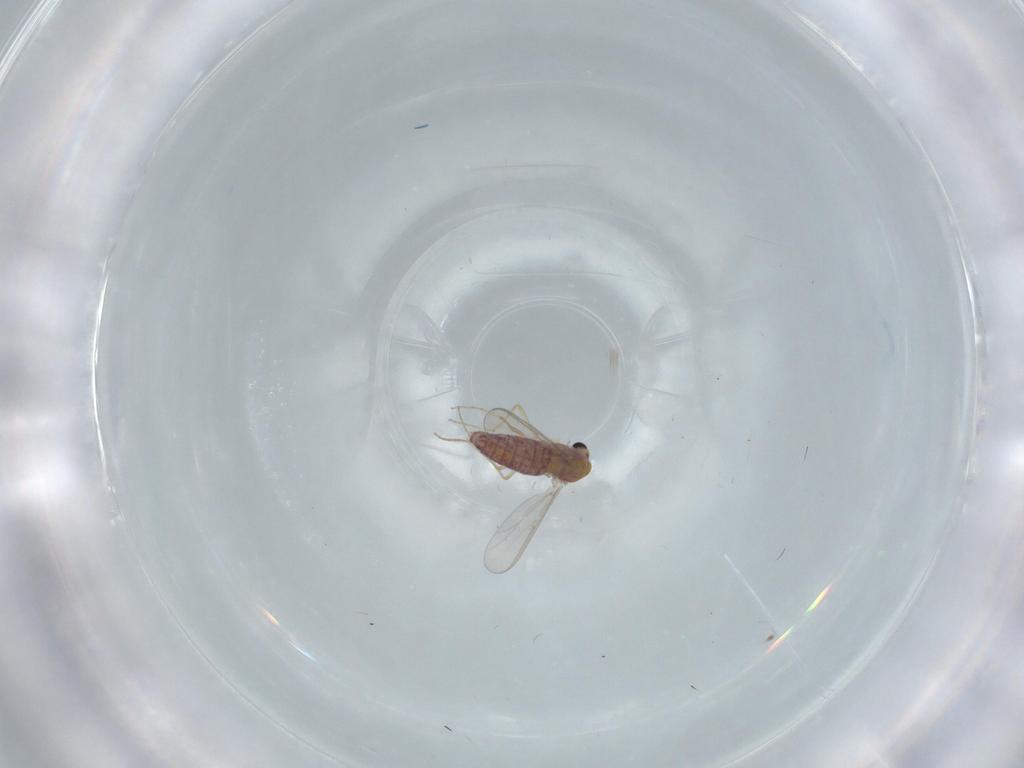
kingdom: Animalia
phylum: Arthropoda
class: Insecta
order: Diptera
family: Chironomidae
